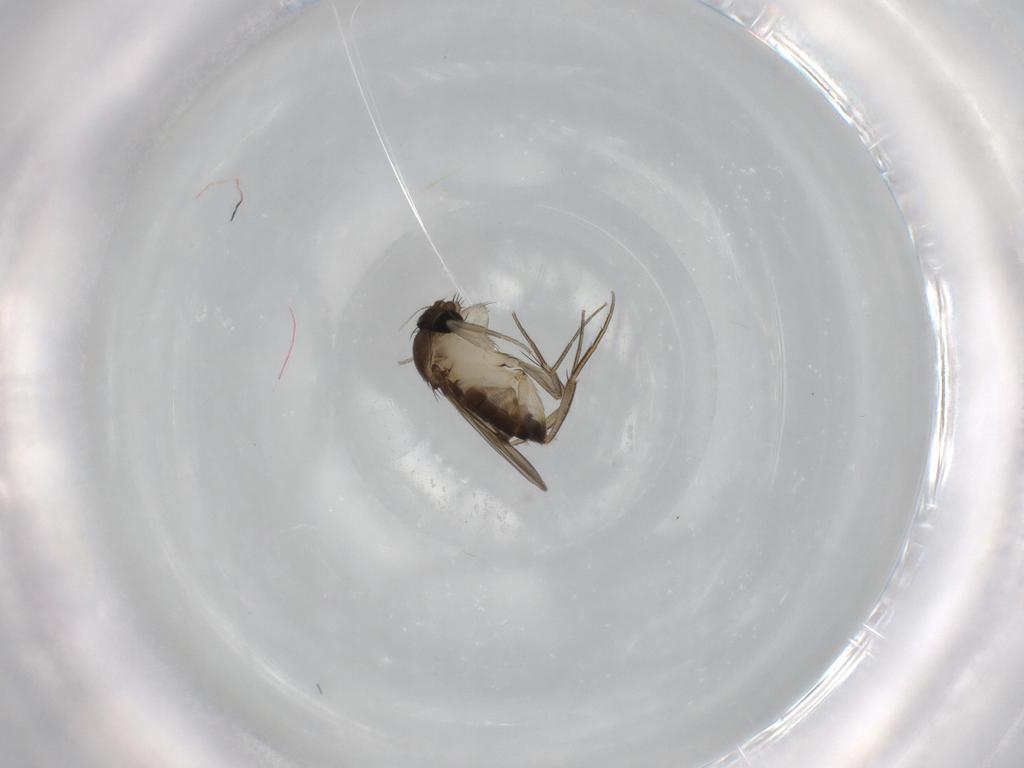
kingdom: Animalia
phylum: Arthropoda
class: Insecta
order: Diptera
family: Phoridae
